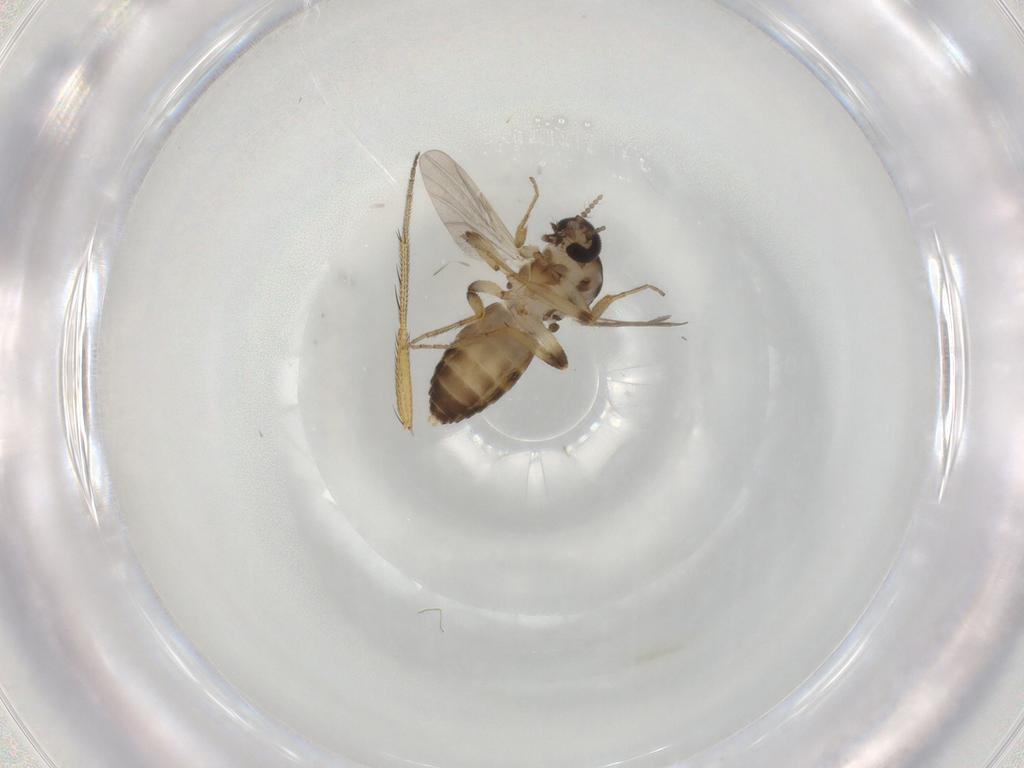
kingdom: Animalia
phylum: Arthropoda
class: Insecta
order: Diptera
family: Ceratopogonidae
